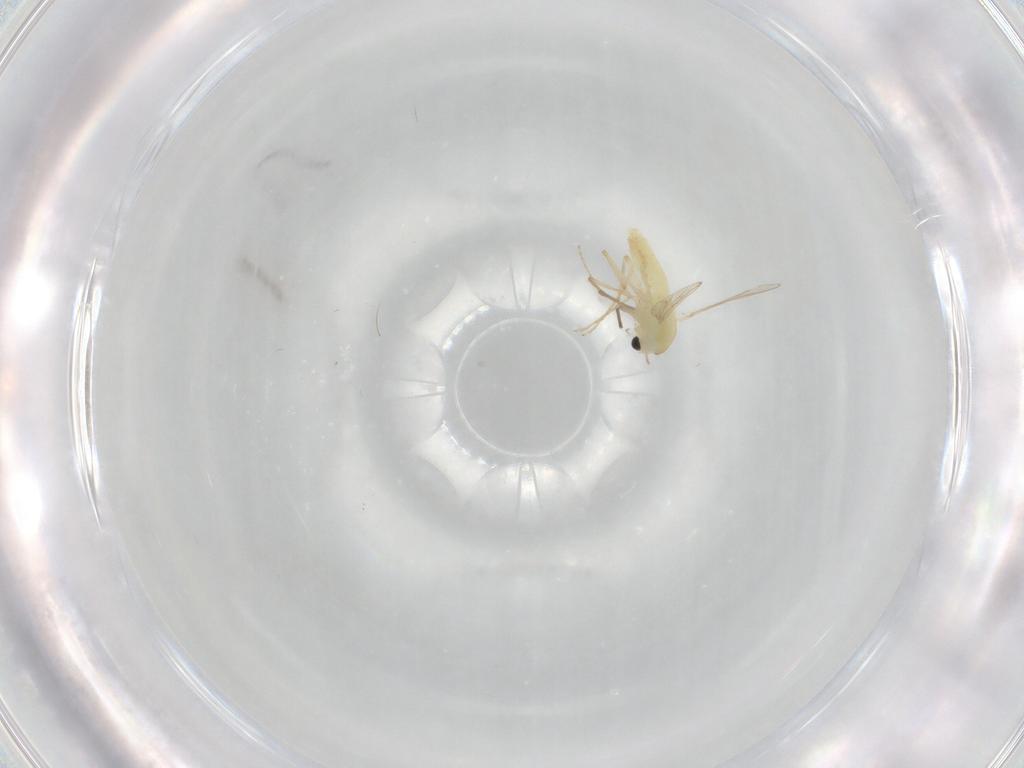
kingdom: Animalia
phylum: Arthropoda
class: Insecta
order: Diptera
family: Chironomidae
